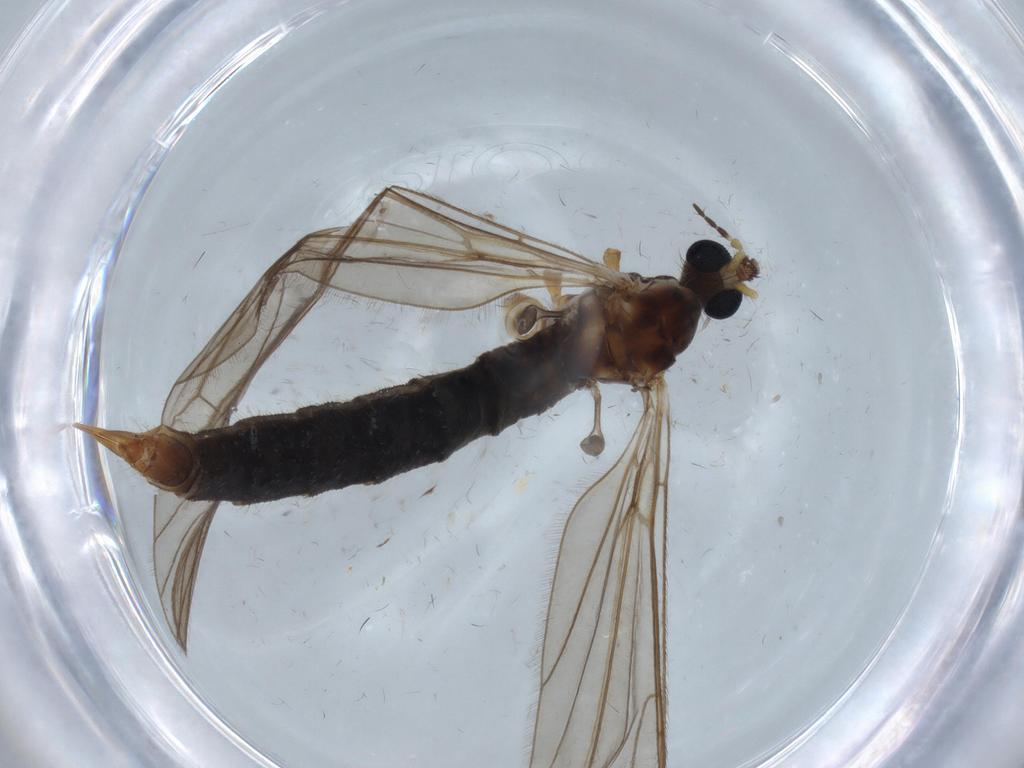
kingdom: Animalia
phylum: Arthropoda
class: Insecta
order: Diptera
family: Limoniidae
